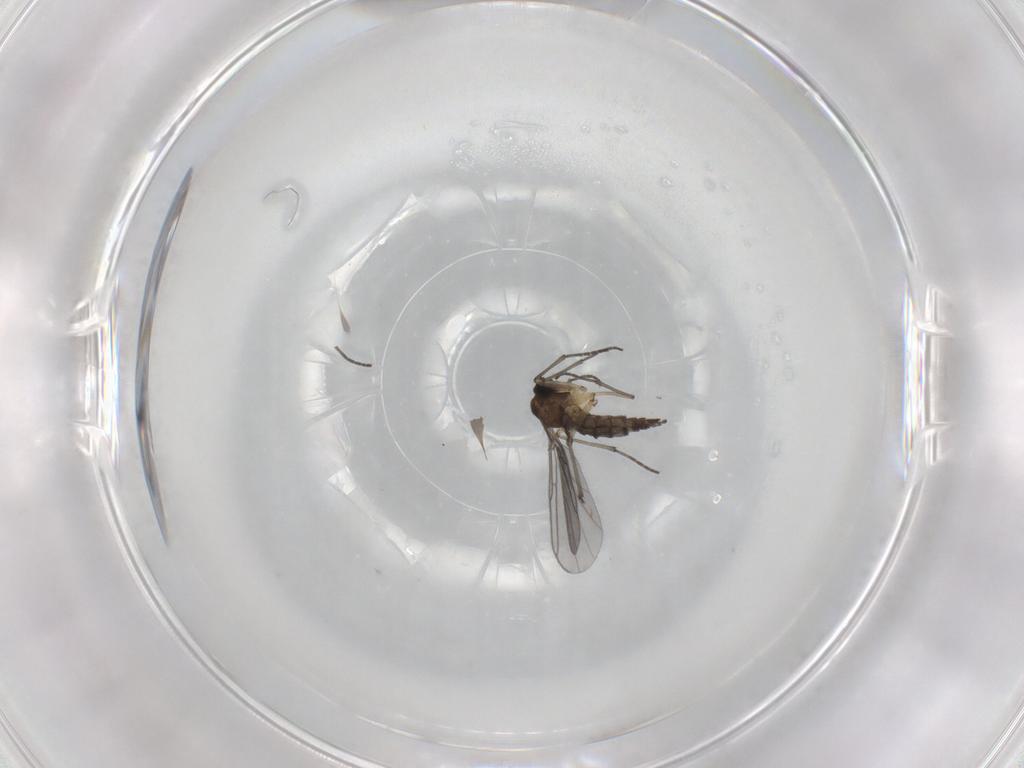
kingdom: Animalia
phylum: Arthropoda
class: Insecta
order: Diptera
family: Sciaridae
